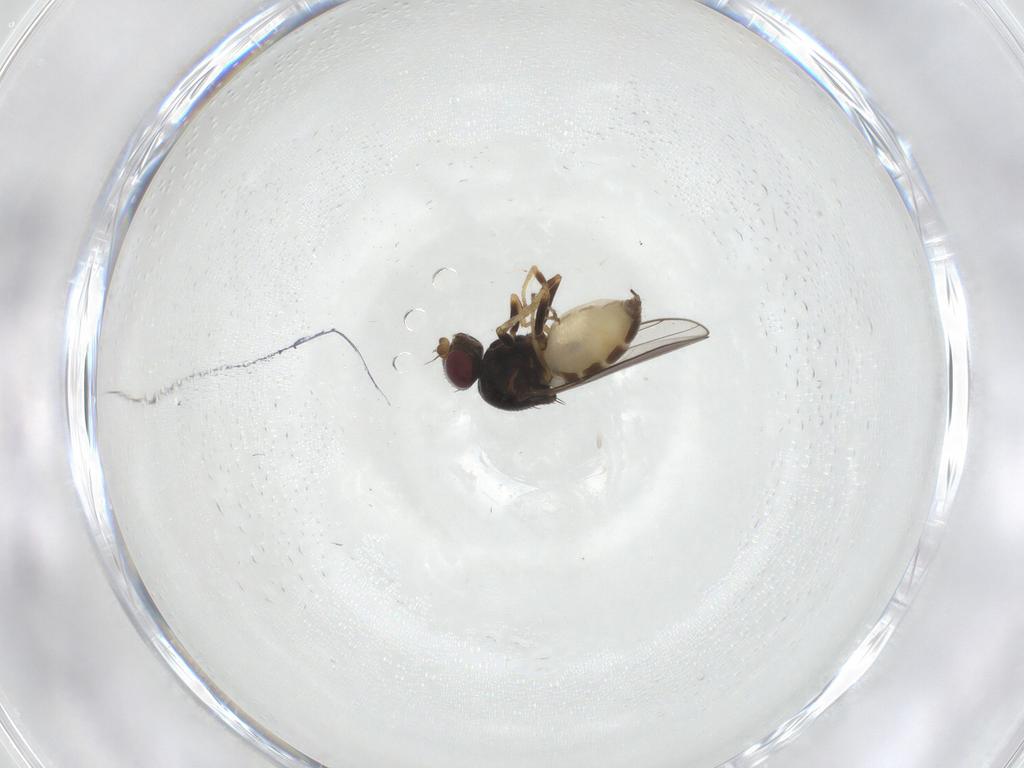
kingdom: Animalia
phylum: Arthropoda
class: Insecta
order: Diptera
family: Chloropidae
